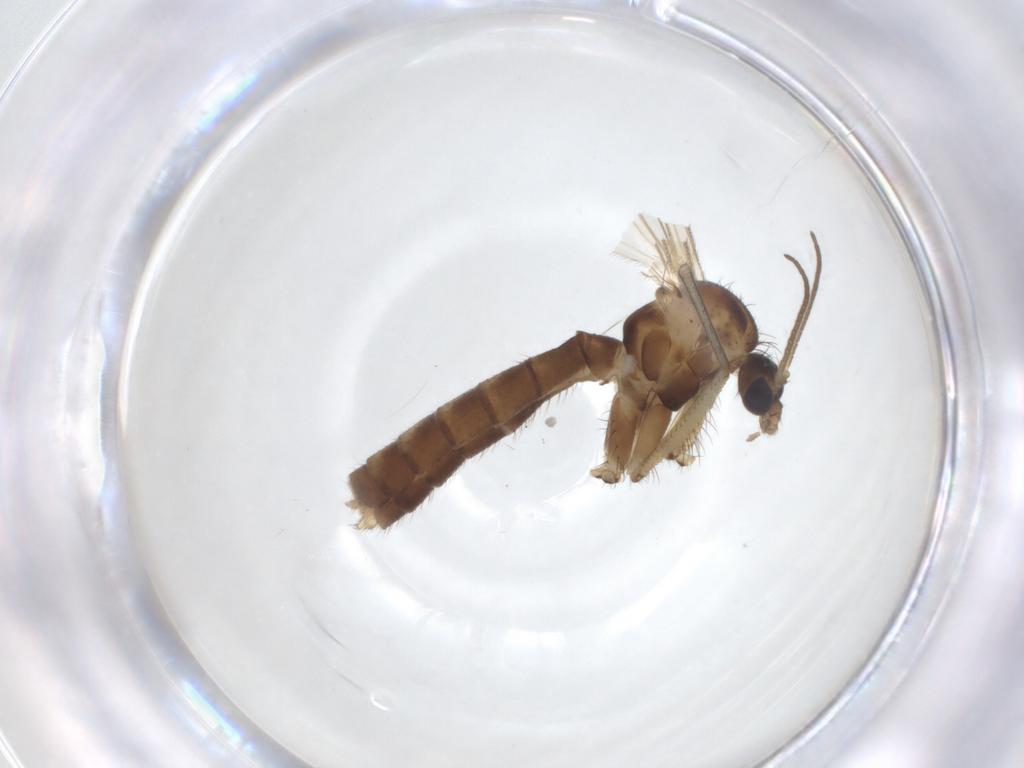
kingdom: Animalia
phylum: Arthropoda
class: Insecta
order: Diptera
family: Mycetophilidae
